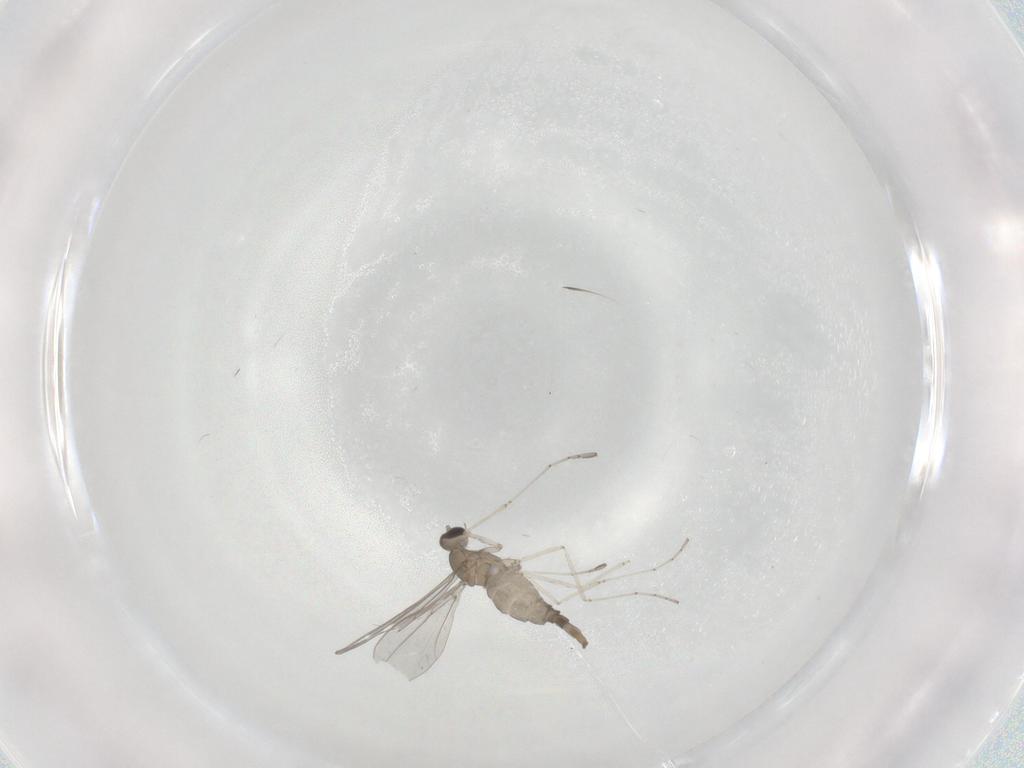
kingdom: Animalia
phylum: Arthropoda
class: Insecta
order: Diptera
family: Cecidomyiidae
